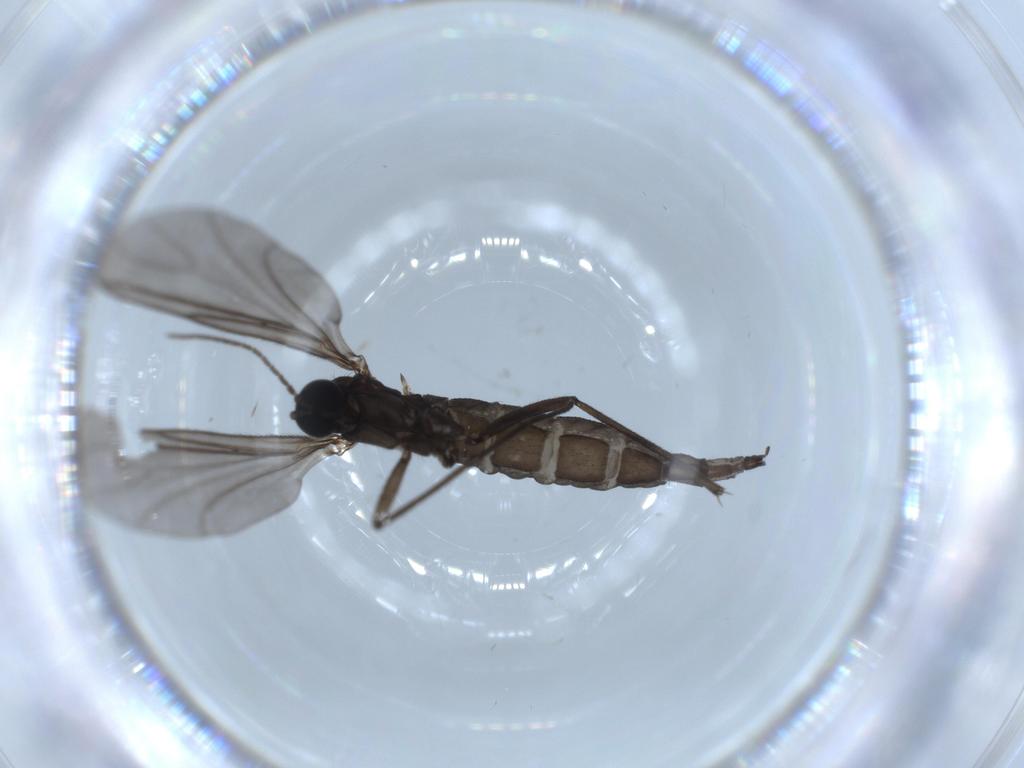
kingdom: Animalia
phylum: Arthropoda
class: Insecta
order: Diptera
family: Sciaridae
